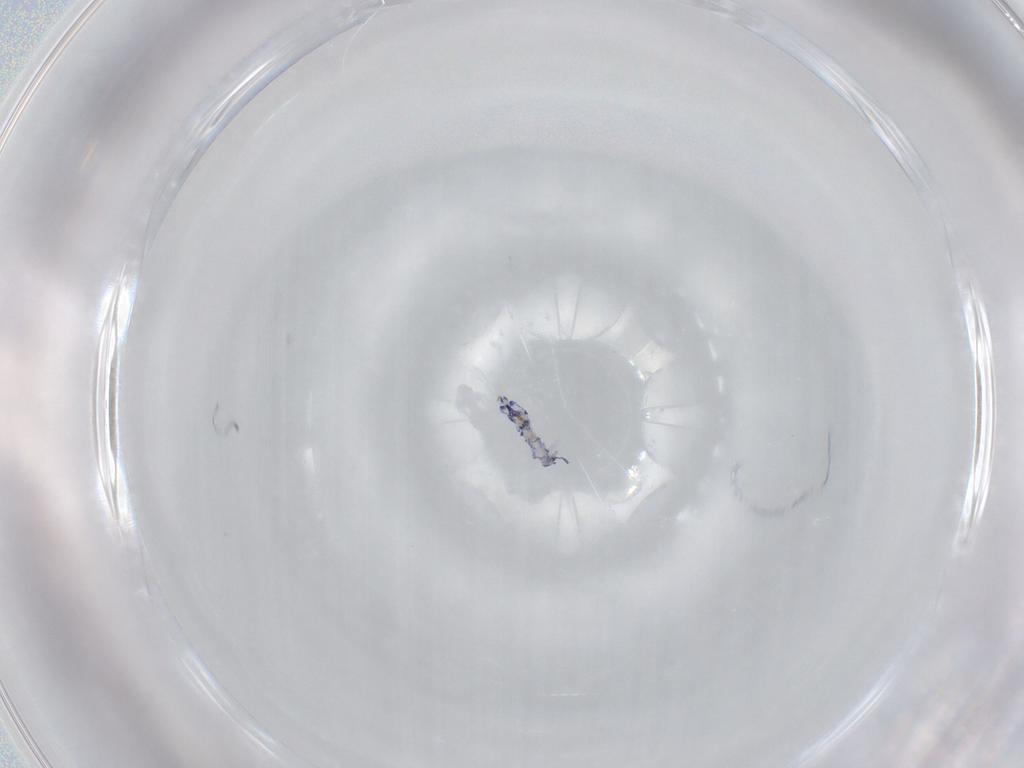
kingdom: Animalia
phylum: Arthropoda
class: Collembola
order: Entomobryomorpha
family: Entomobryidae
